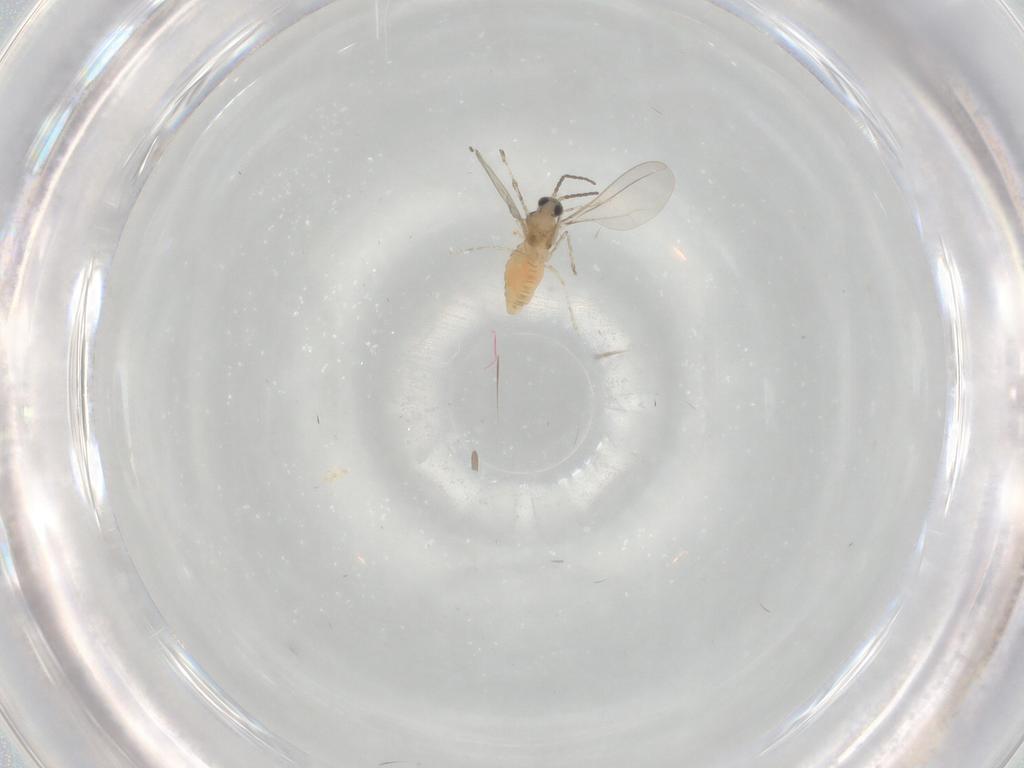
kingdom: Animalia
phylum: Arthropoda
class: Insecta
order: Diptera
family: Cecidomyiidae
